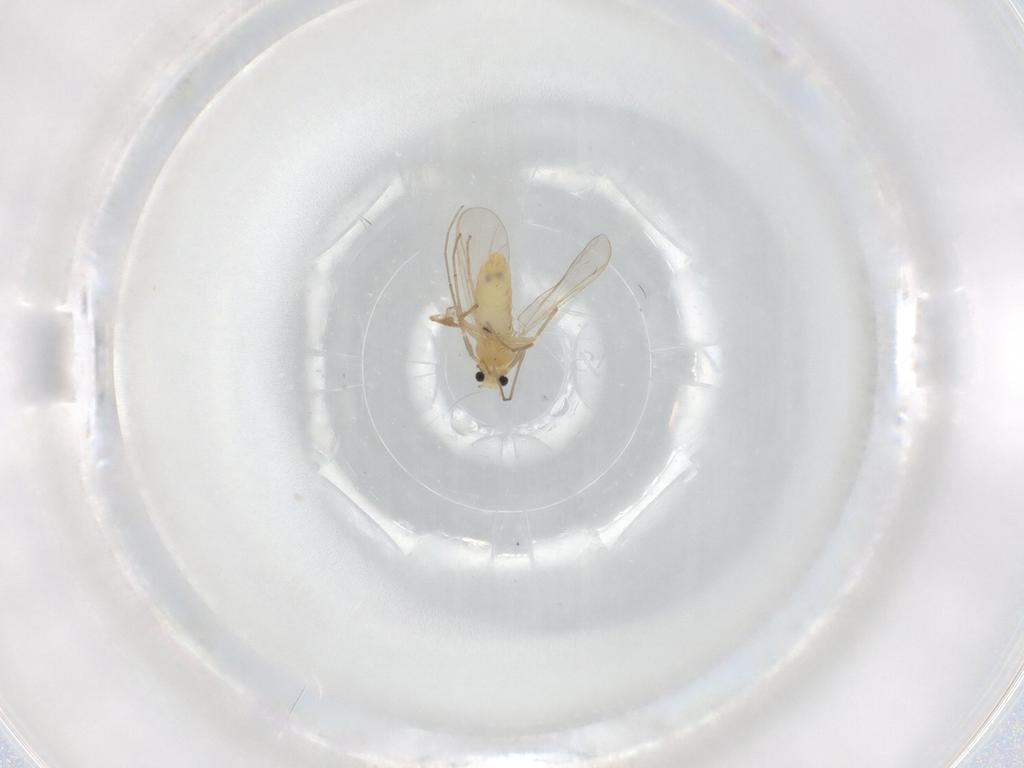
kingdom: Animalia
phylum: Arthropoda
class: Insecta
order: Diptera
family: Chironomidae
